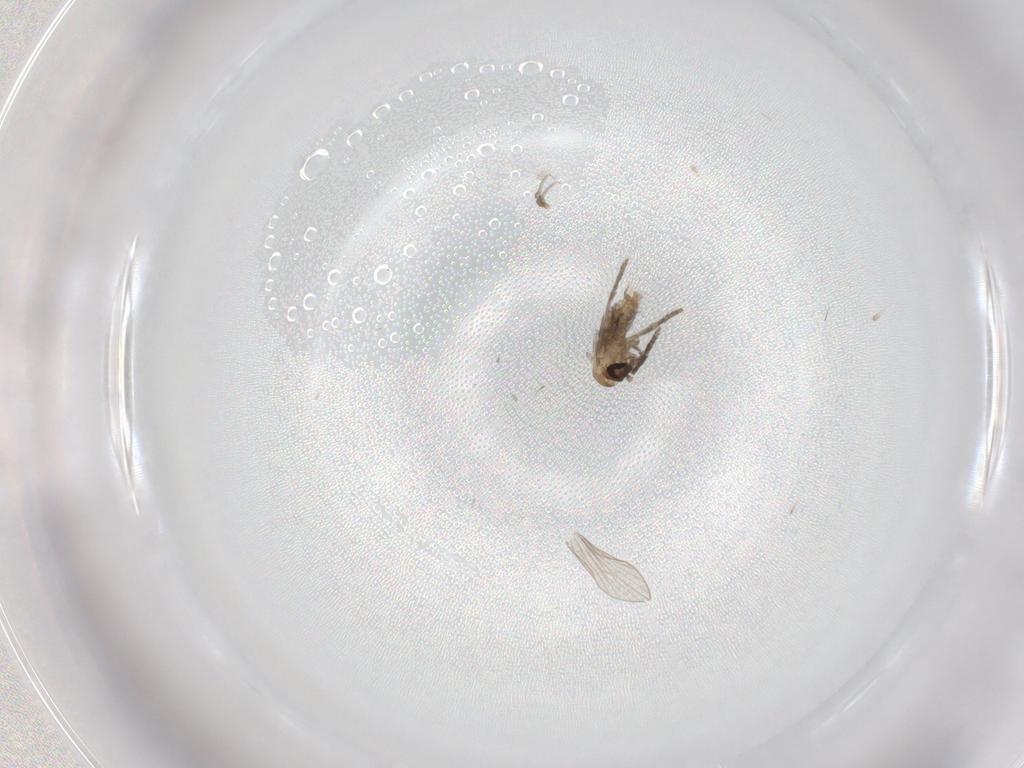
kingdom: Animalia
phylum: Arthropoda
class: Insecta
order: Diptera
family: Psychodidae
